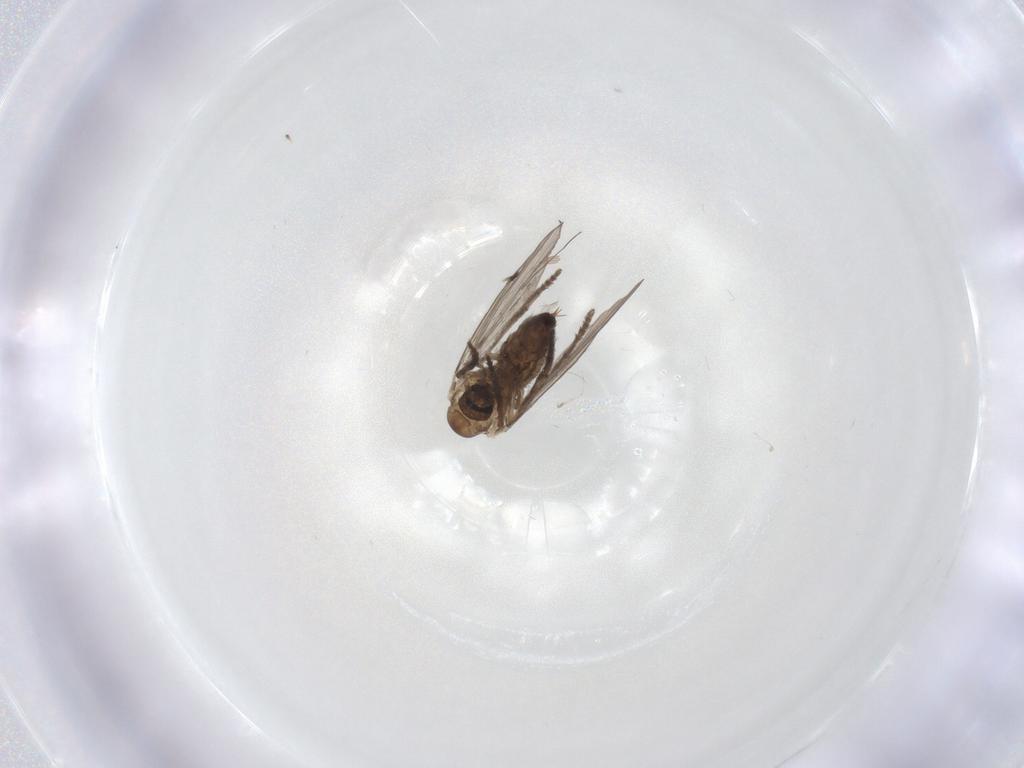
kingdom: Animalia
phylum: Arthropoda
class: Insecta
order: Diptera
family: Psychodidae
